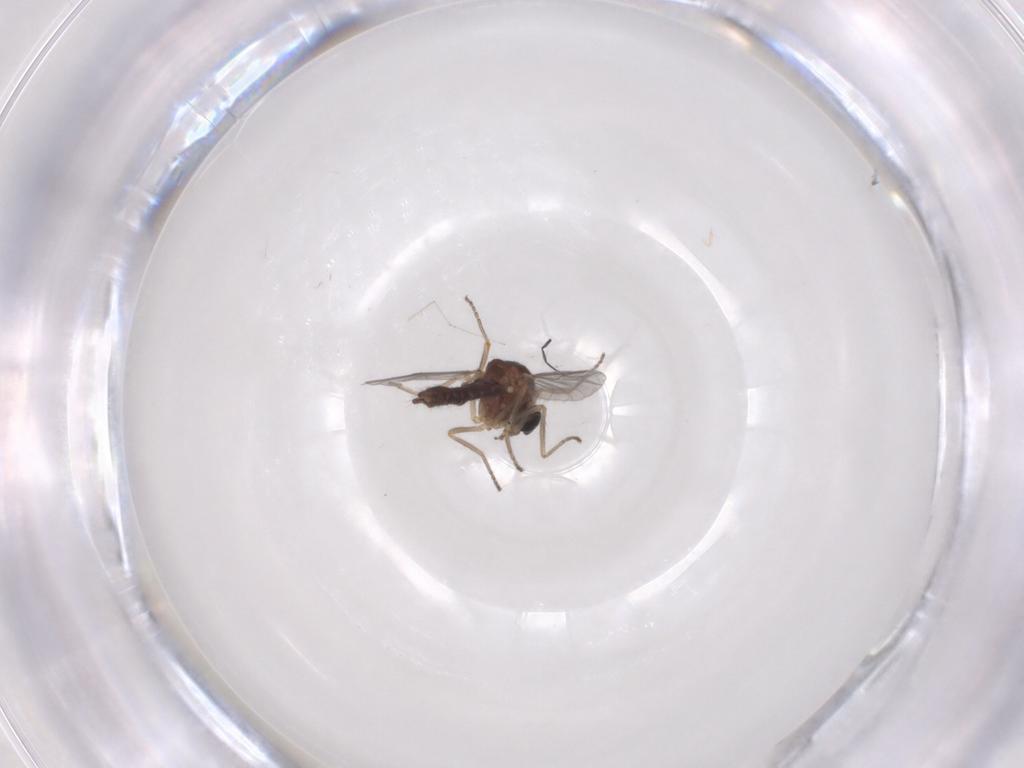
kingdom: Animalia
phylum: Arthropoda
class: Insecta
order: Diptera
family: Ceratopogonidae
